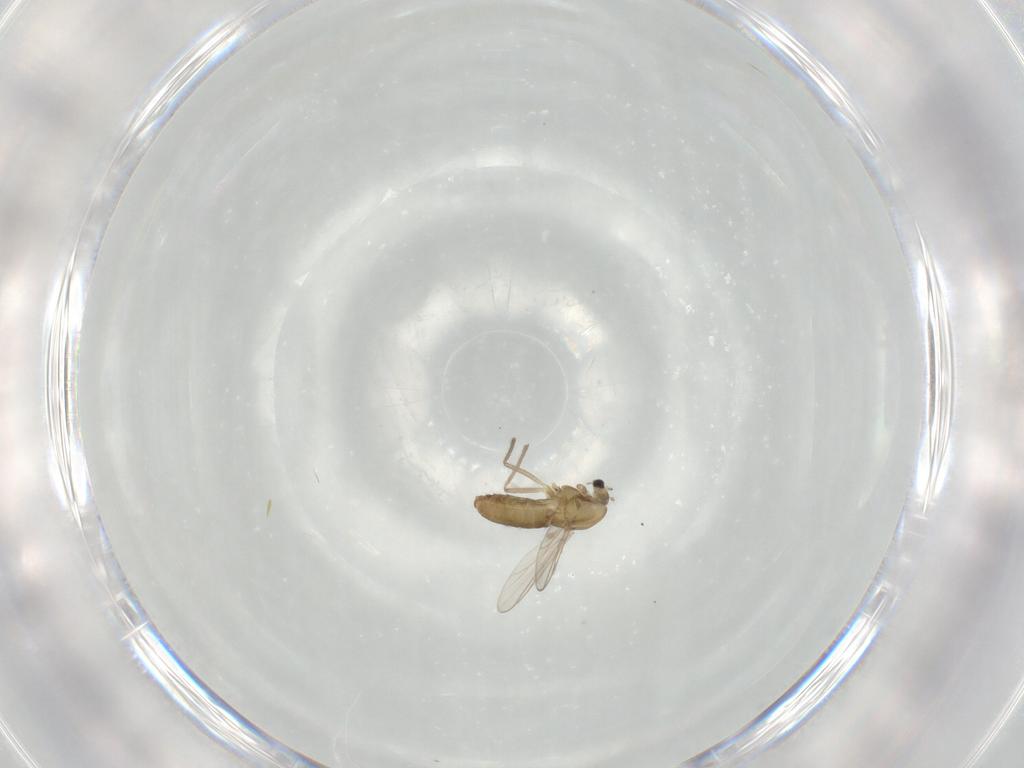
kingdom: Animalia
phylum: Arthropoda
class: Insecta
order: Diptera
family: Chironomidae
